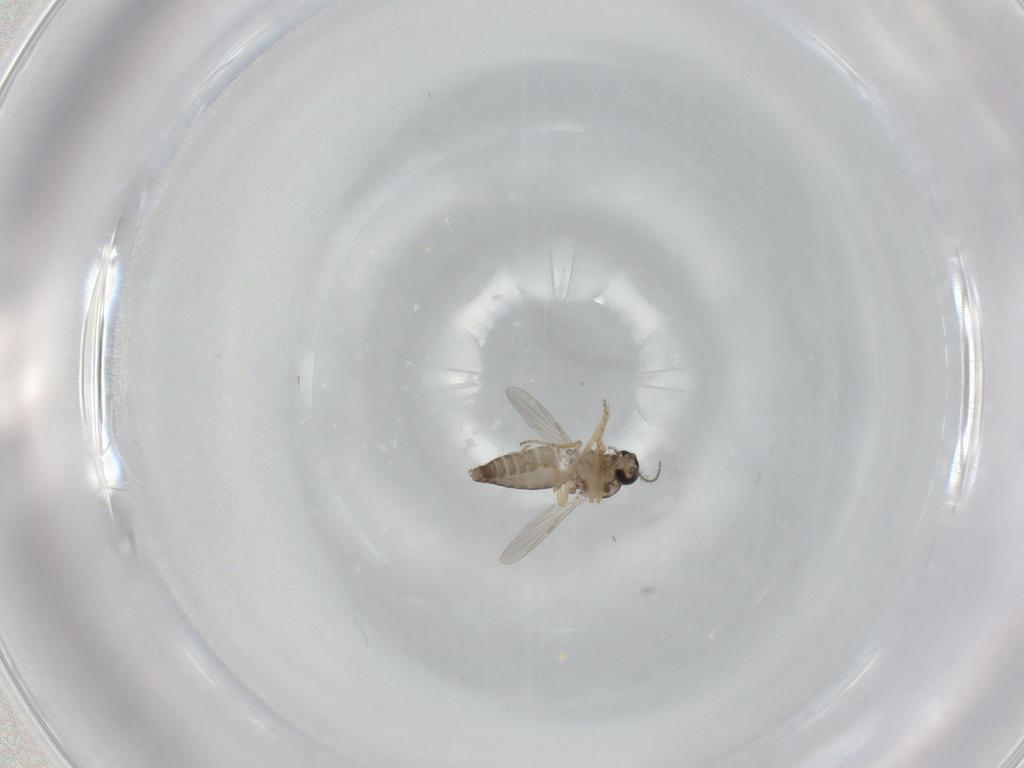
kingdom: Animalia
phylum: Arthropoda
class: Insecta
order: Diptera
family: Ceratopogonidae
